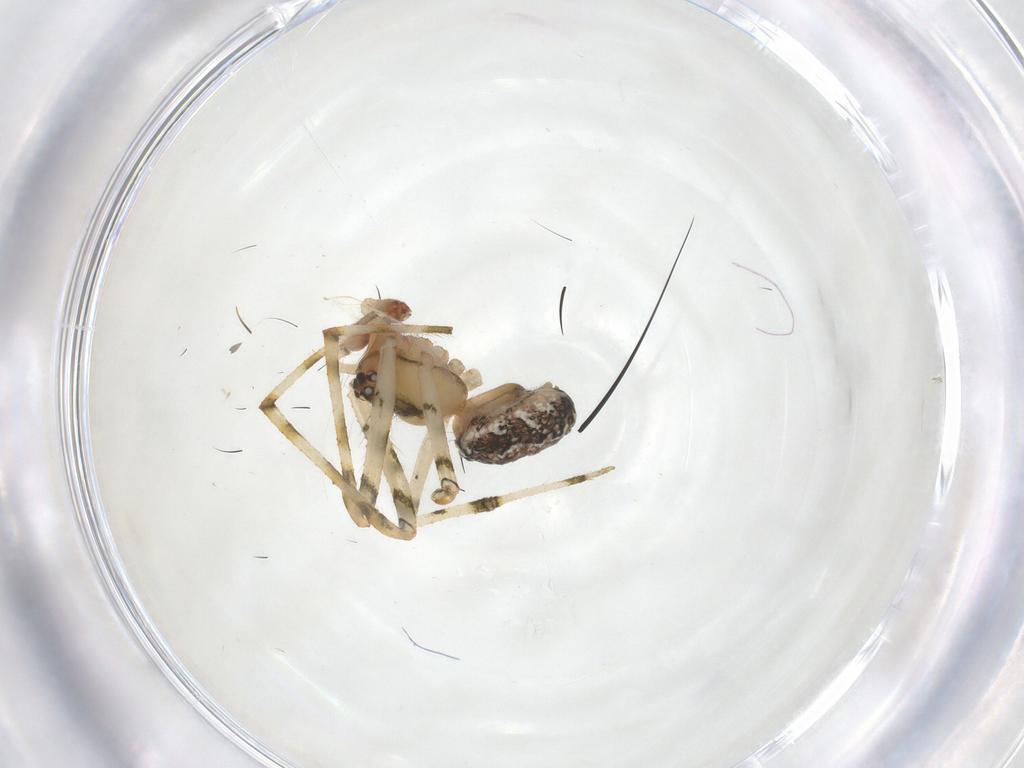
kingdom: Animalia
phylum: Arthropoda
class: Arachnida
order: Araneae
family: Theridiidae
